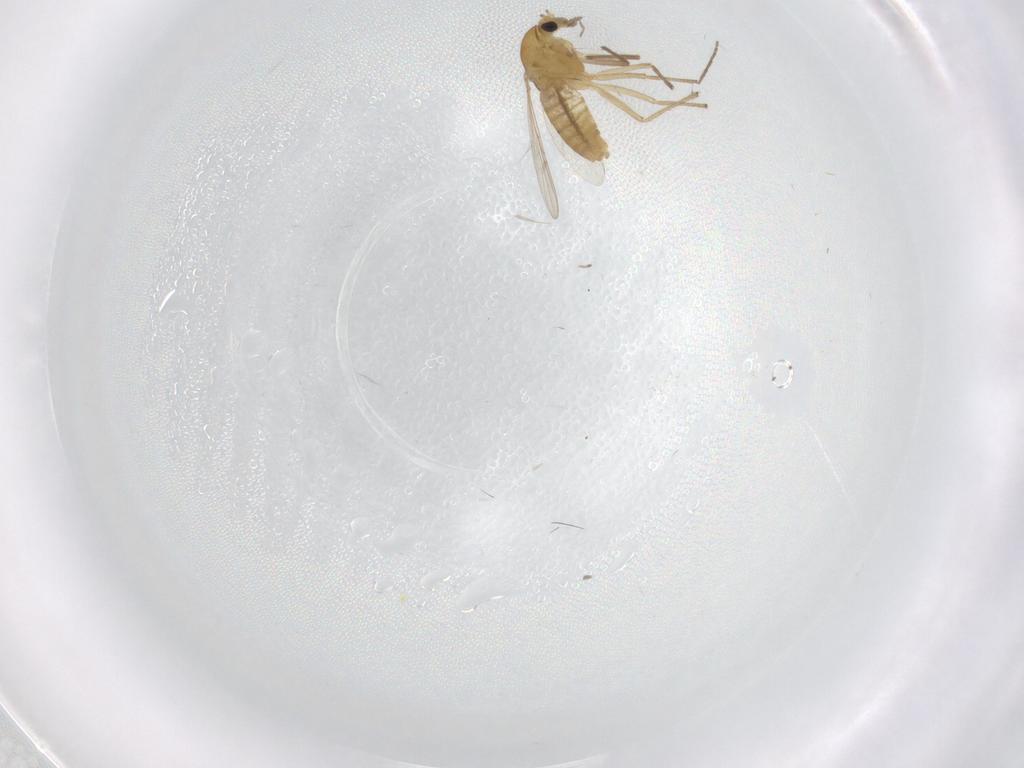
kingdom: Animalia
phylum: Arthropoda
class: Insecta
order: Diptera
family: Chironomidae
